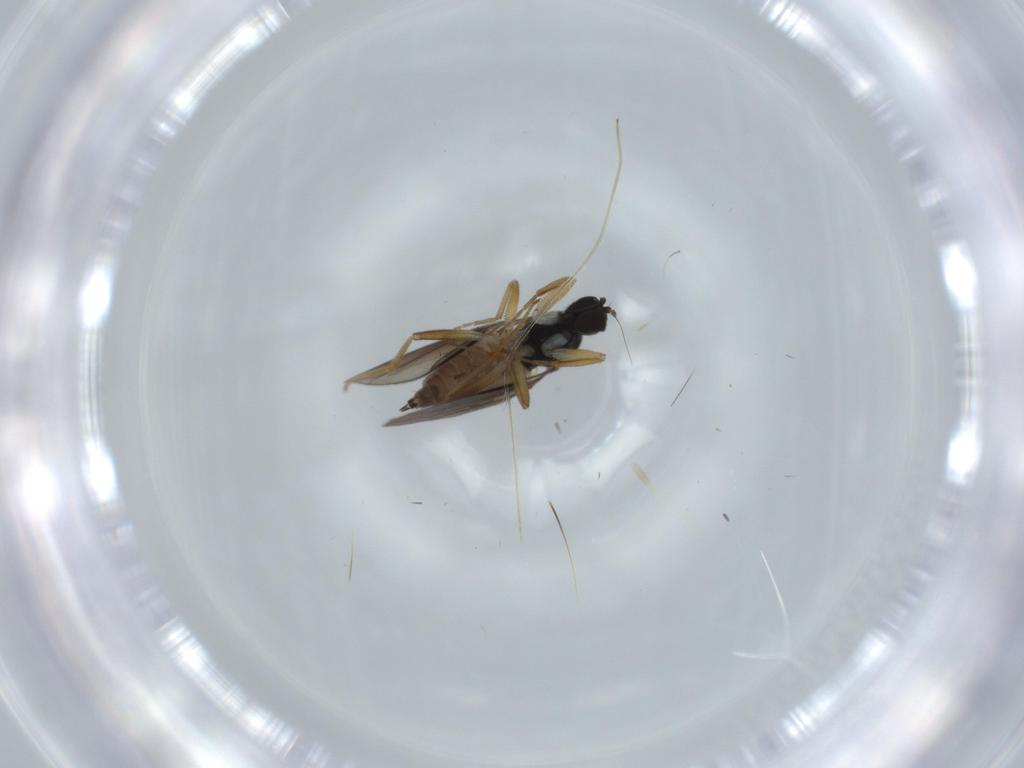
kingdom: Animalia
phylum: Arthropoda
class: Insecta
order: Diptera
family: Hybotidae
